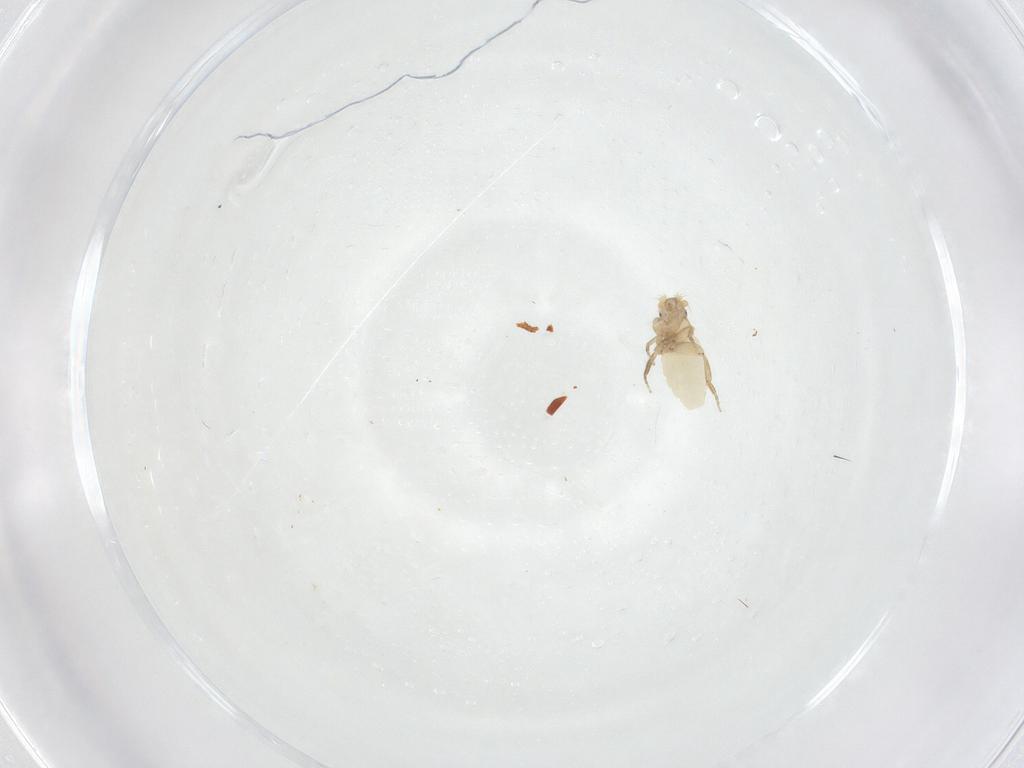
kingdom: Animalia
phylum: Arthropoda
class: Insecta
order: Diptera
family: Phoridae
